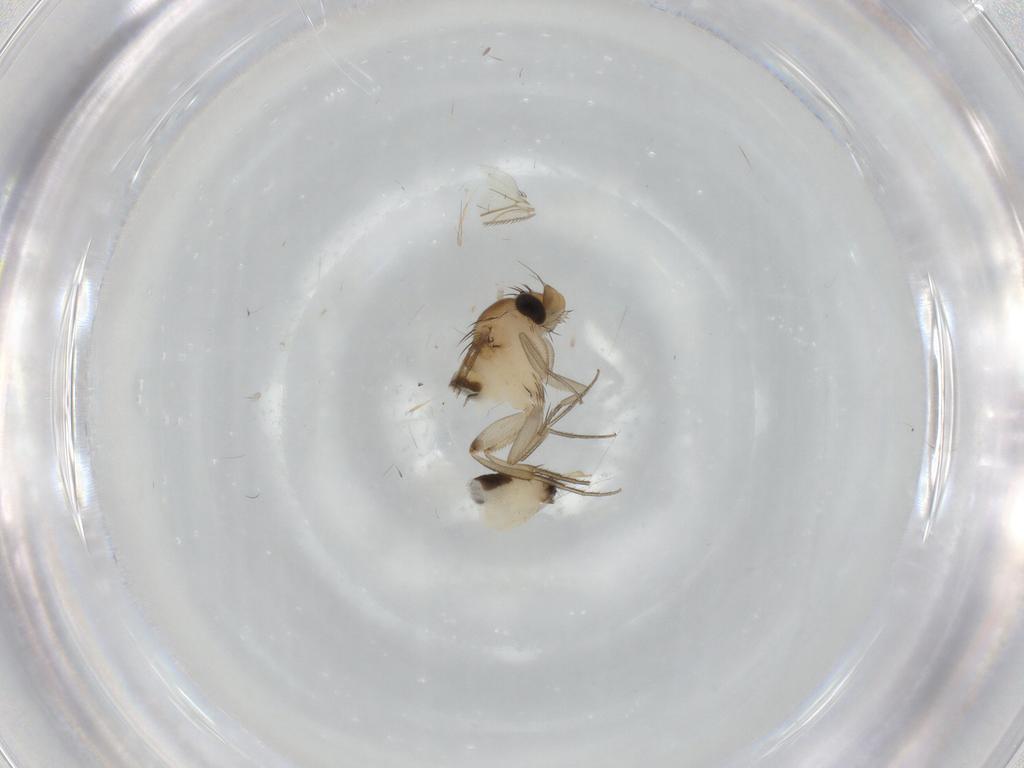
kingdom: Animalia
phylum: Arthropoda
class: Insecta
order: Diptera
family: Phoridae
